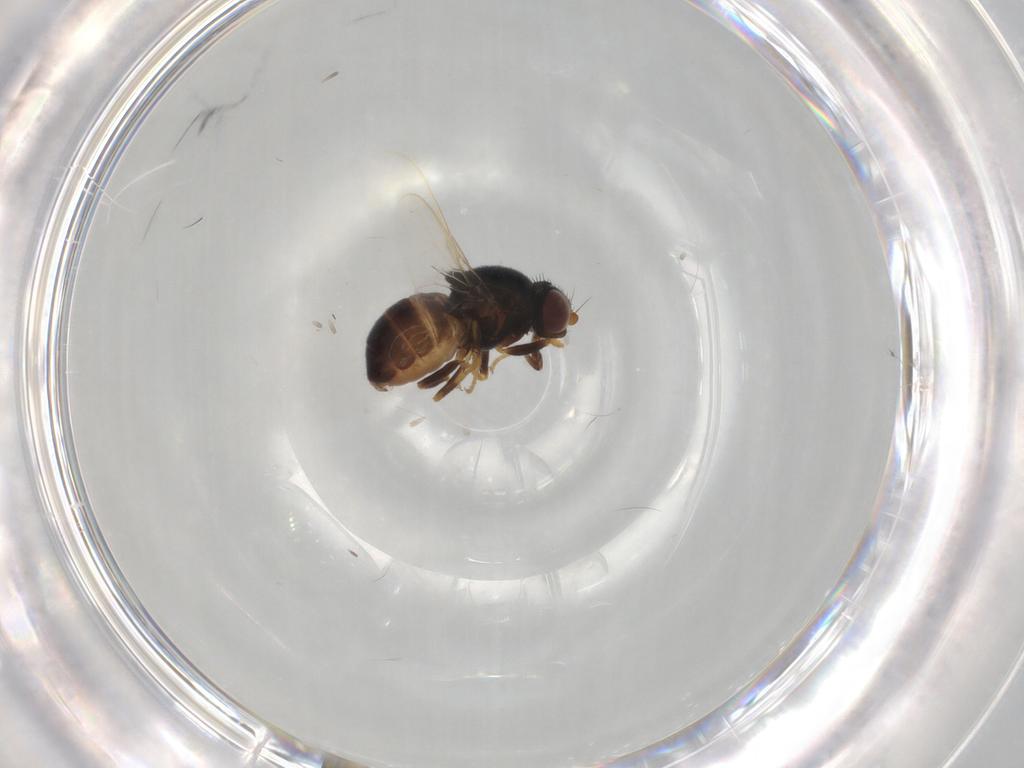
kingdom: Animalia
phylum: Arthropoda
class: Insecta
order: Diptera
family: Chloropidae
